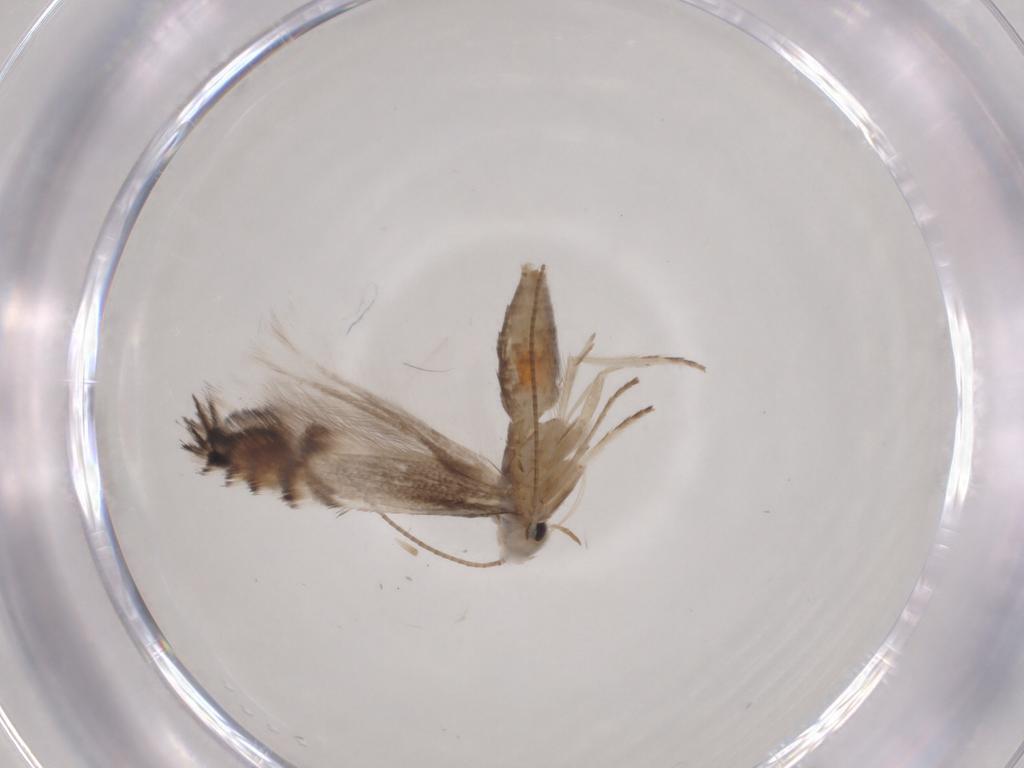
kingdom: Animalia
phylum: Arthropoda
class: Insecta
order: Lepidoptera
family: Gracillariidae
